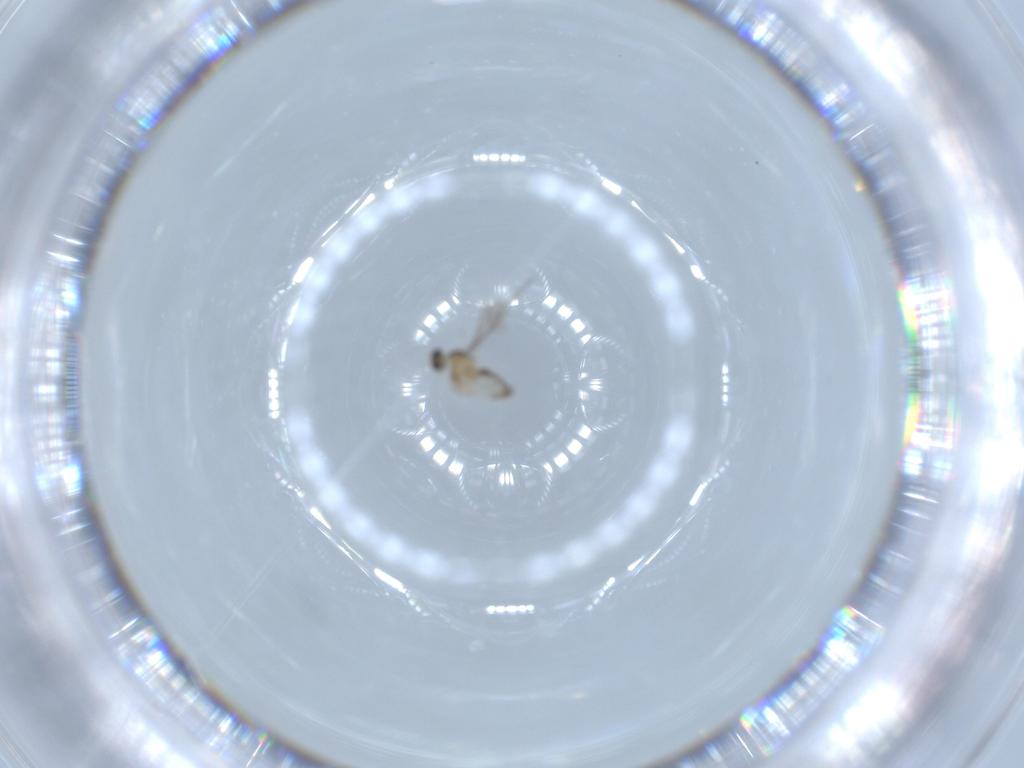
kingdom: Animalia
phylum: Arthropoda
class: Insecta
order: Diptera
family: Cecidomyiidae
